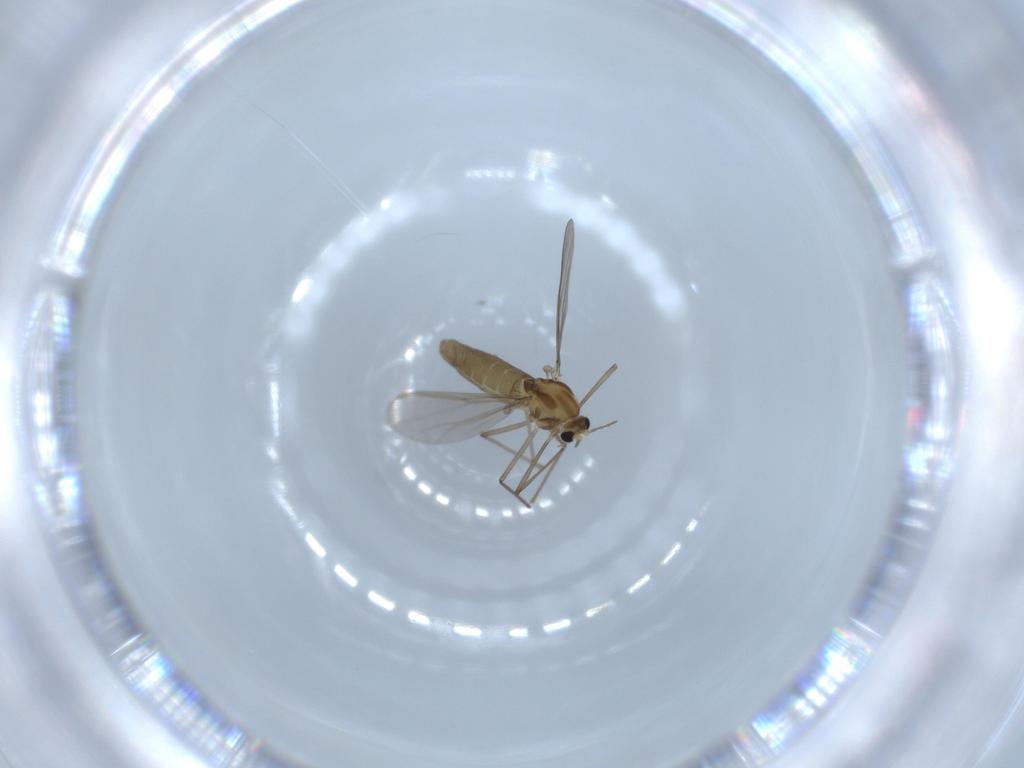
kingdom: Animalia
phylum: Arthropoda
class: Insecta
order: Diptera
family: Chironomidae
